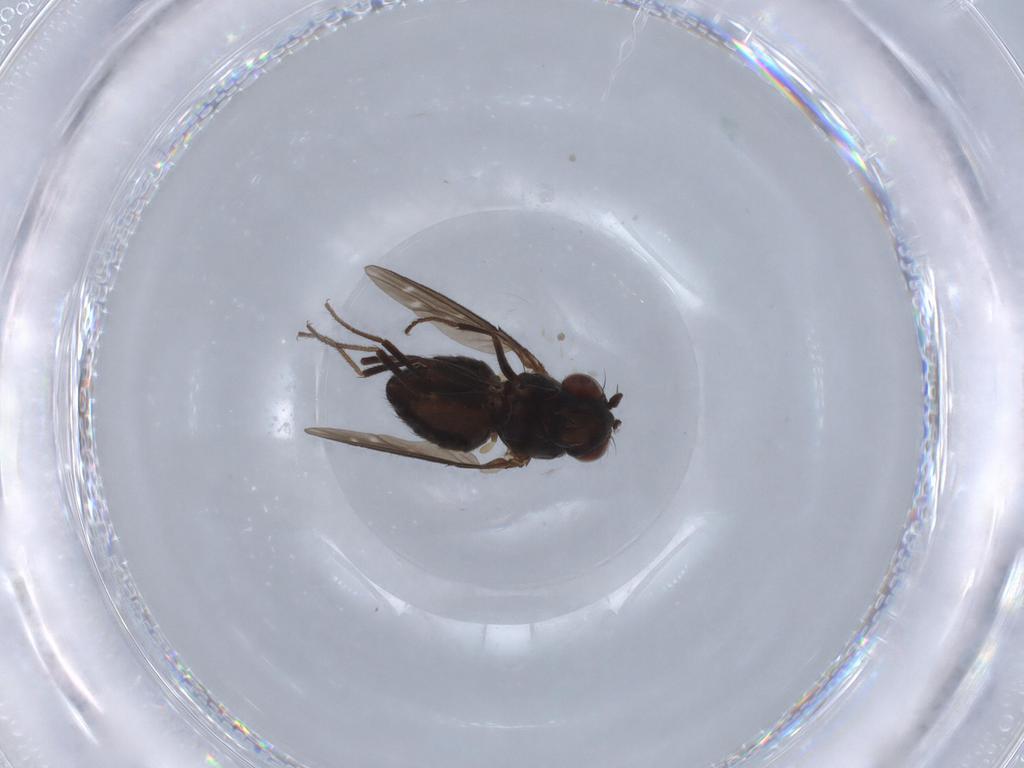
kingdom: Animalia
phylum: Arthropoda
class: Insecta
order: Diptera
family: Ephydridae
